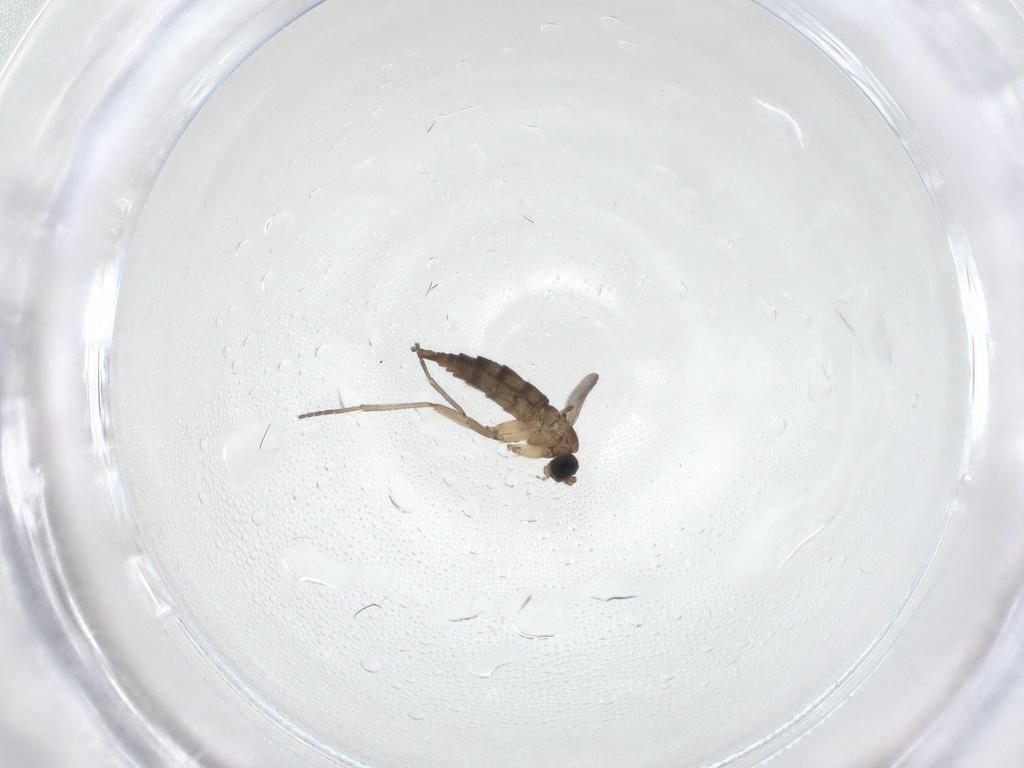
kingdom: Animalia
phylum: Arthropoda
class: Insecta
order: Diptera
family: Sciaridae
